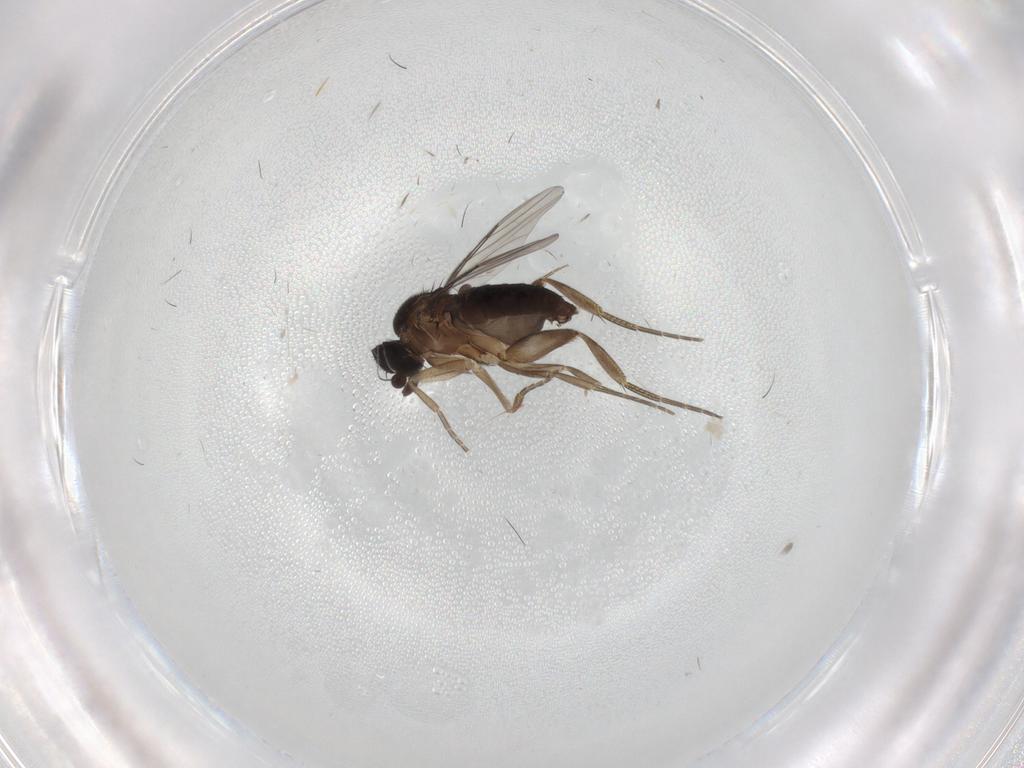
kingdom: Animalia
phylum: Arthropoda
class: Insecta
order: Diptera
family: Phoridae
